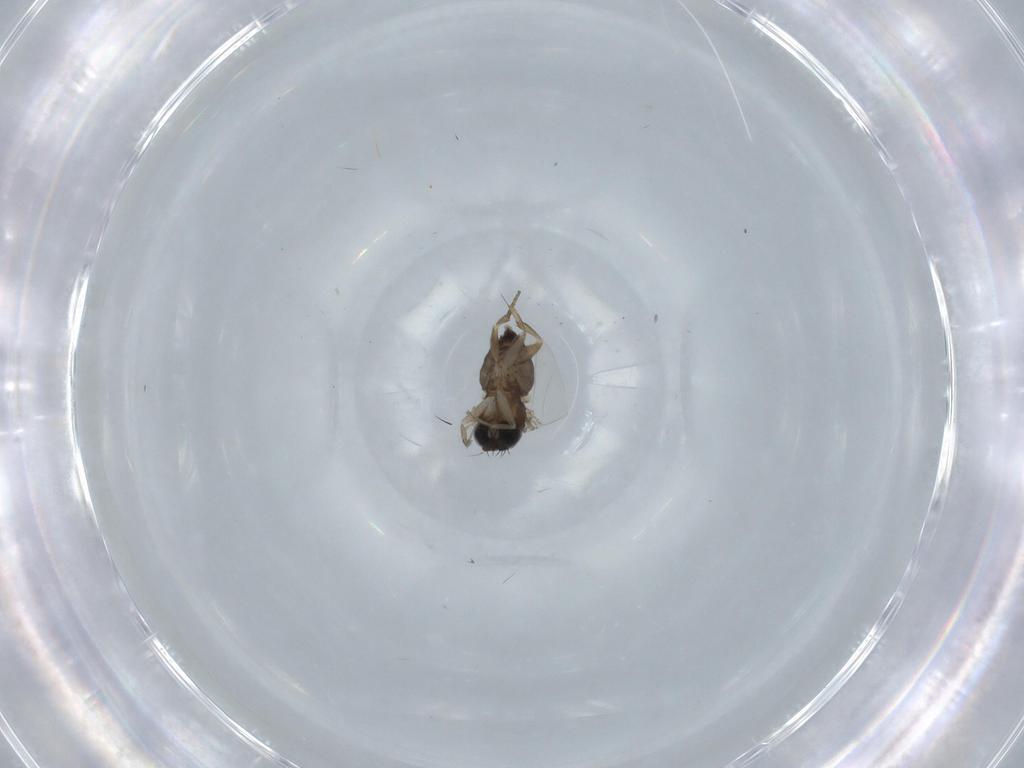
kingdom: Animalia
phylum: Arthropoda
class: Insecta
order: Diptera
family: Phoridae
